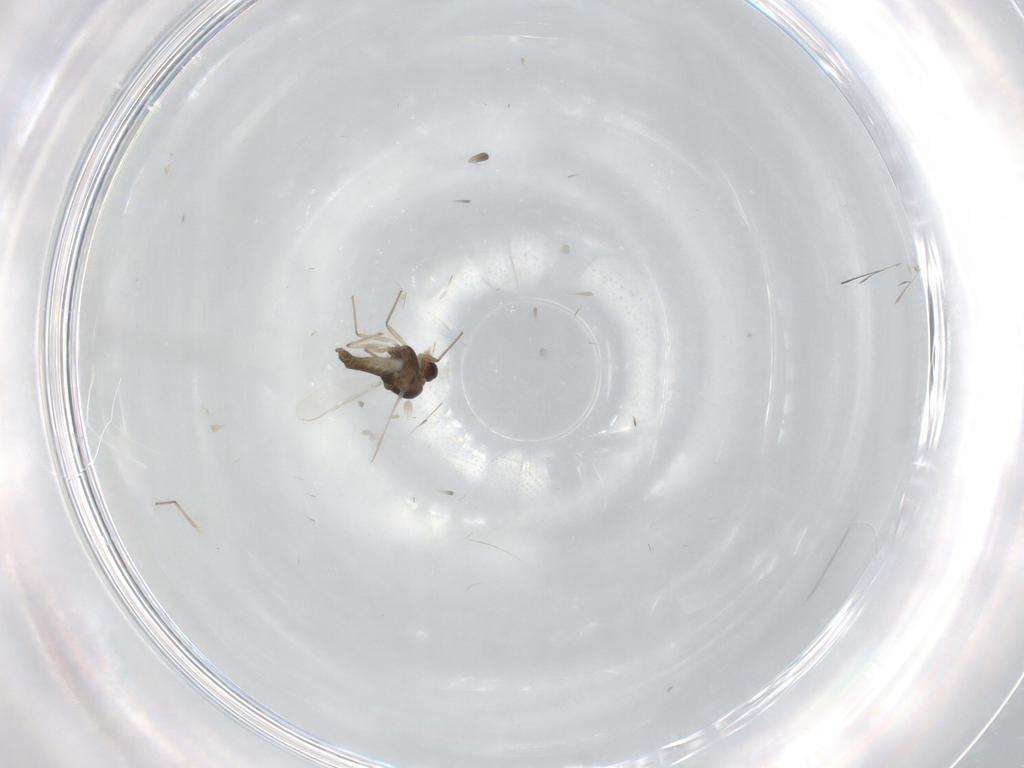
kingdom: Animalia
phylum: Arthropoda
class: Insecta
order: Diptera
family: Chironomidae
